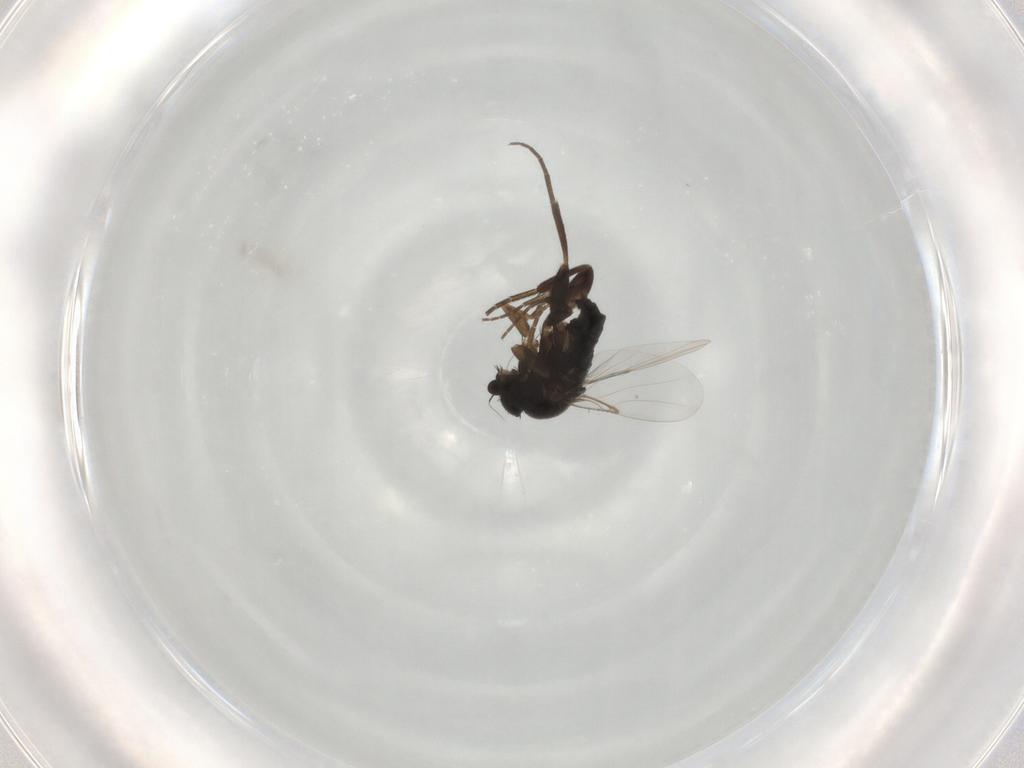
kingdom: Animalia
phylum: Arthropoda
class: Insecta
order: Diptera
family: Phoridae
